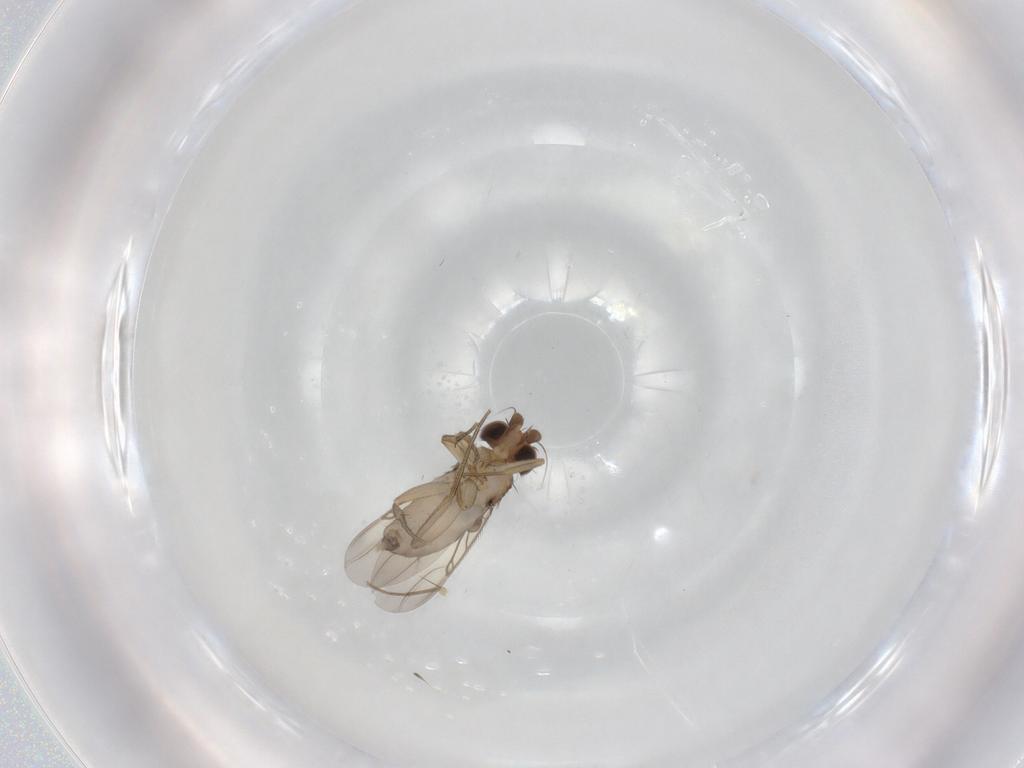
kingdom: Animalia
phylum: Arthropoda
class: Insecta
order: Diptera
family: Phoridae
